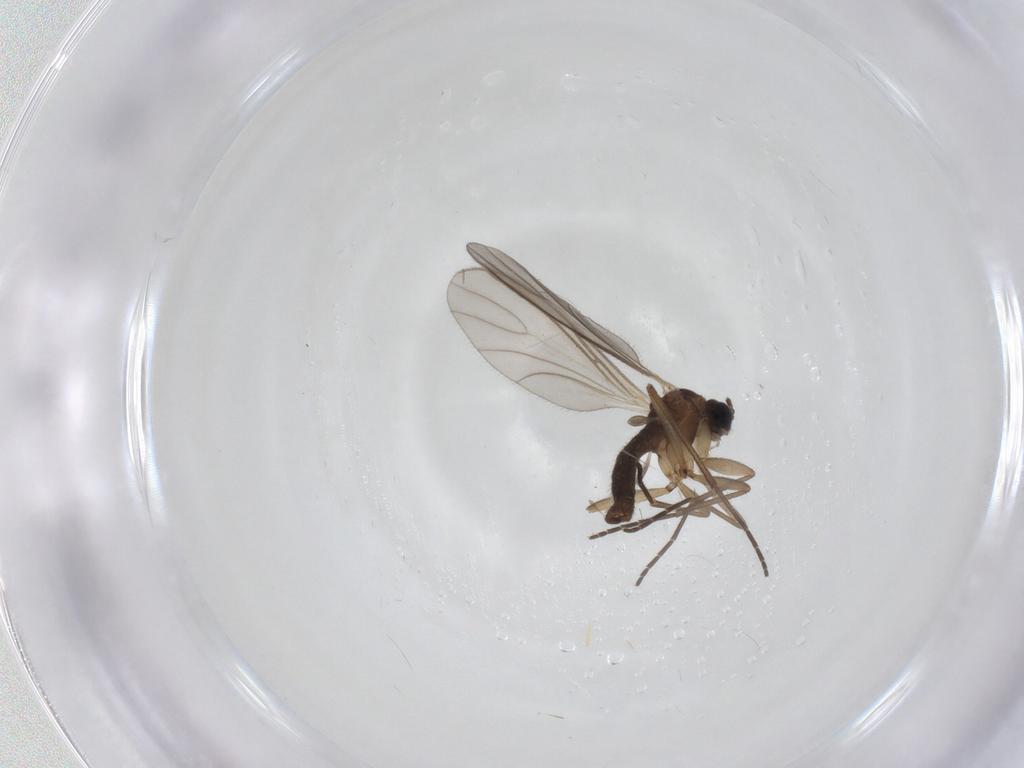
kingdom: Animalia
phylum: Arthropoda
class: Insecta
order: Diptera
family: Sciaridae
